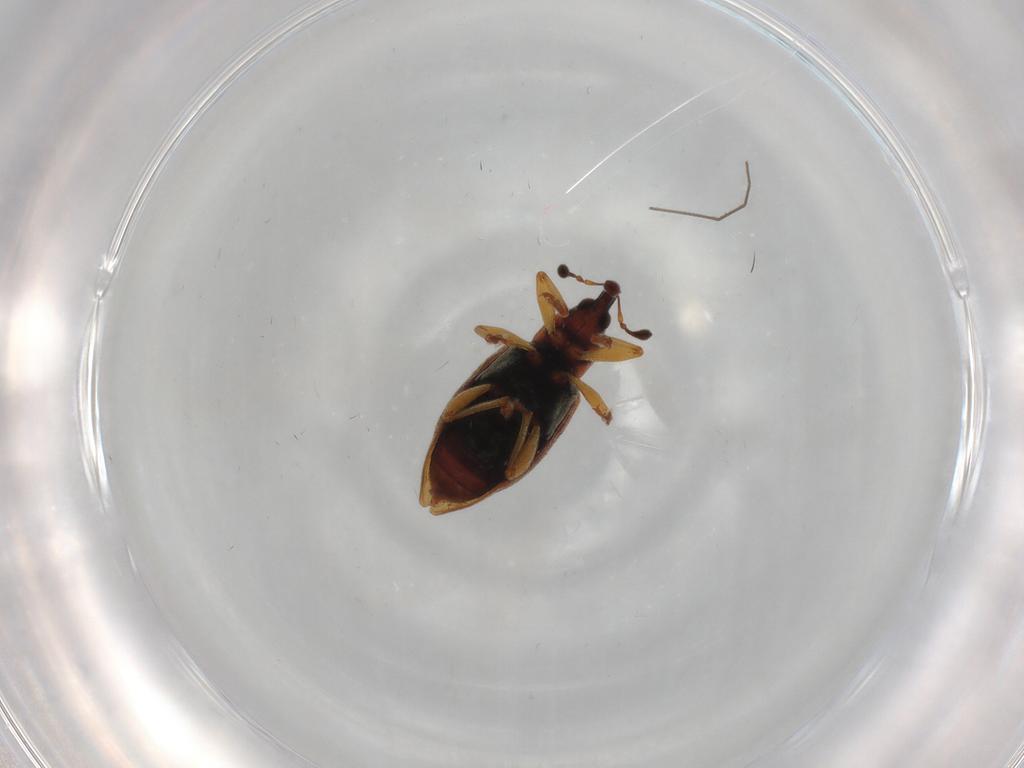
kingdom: Animalia
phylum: Arthropoda
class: Insecta
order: Coleoptera
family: Curculionidae
